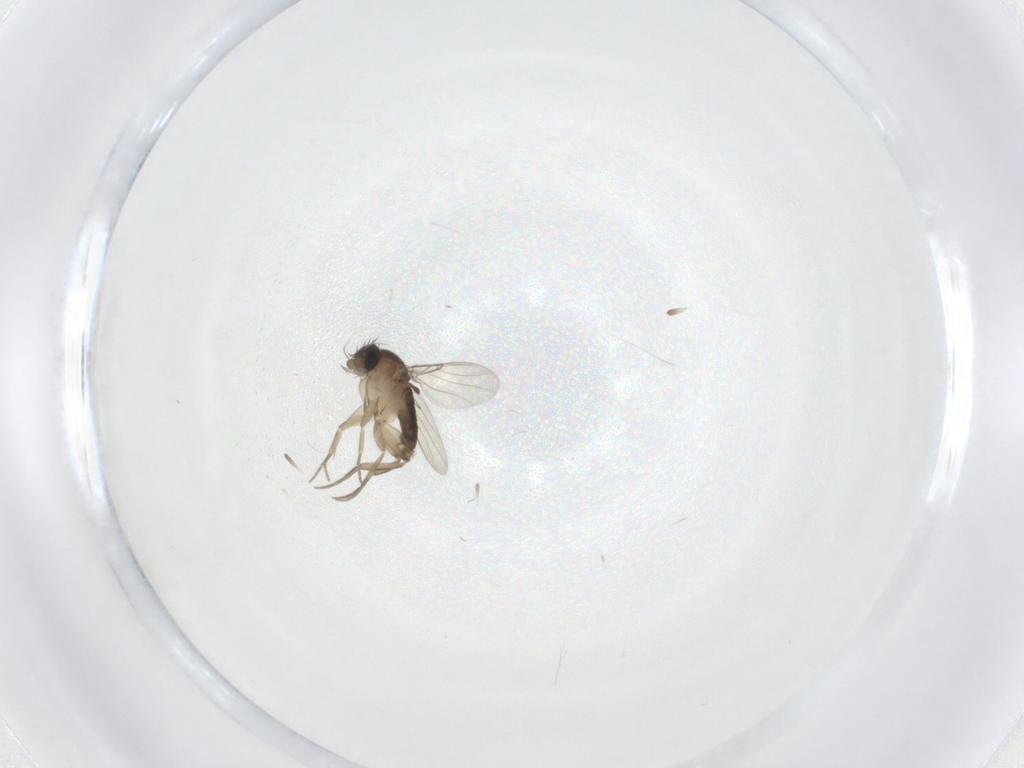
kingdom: Animalia
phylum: Arthropoda
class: Insecta
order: Diptera
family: Phoridae
